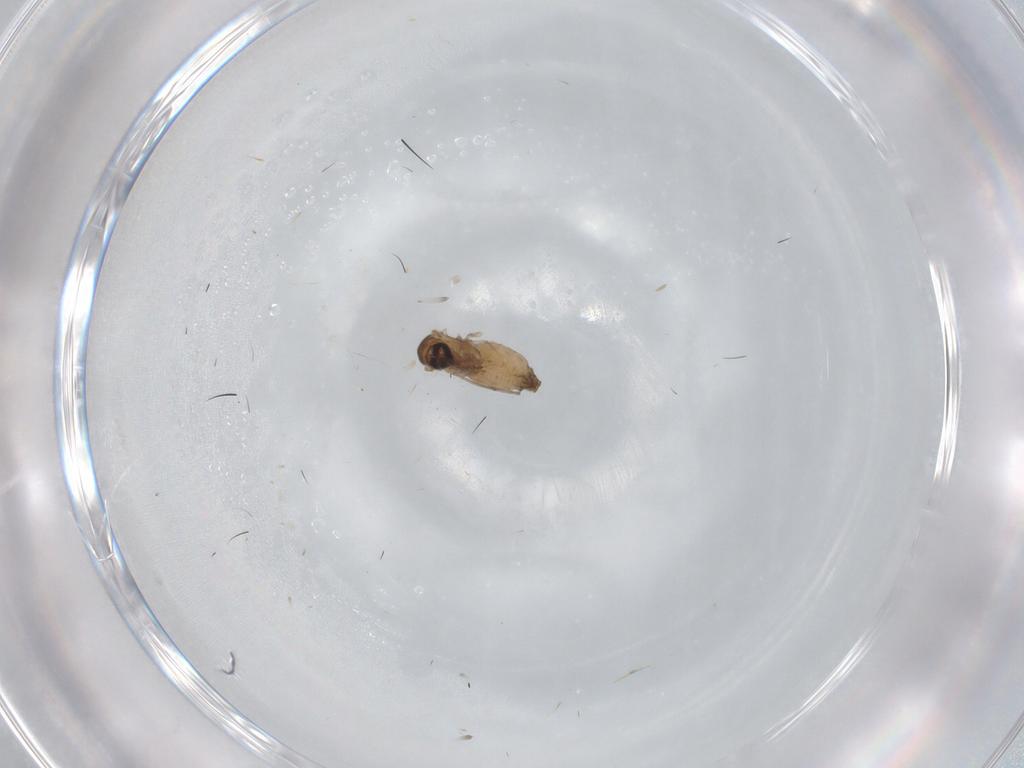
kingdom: Animalia
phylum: Arthropoda
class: Insecta
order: Diptera
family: Psychodidae
